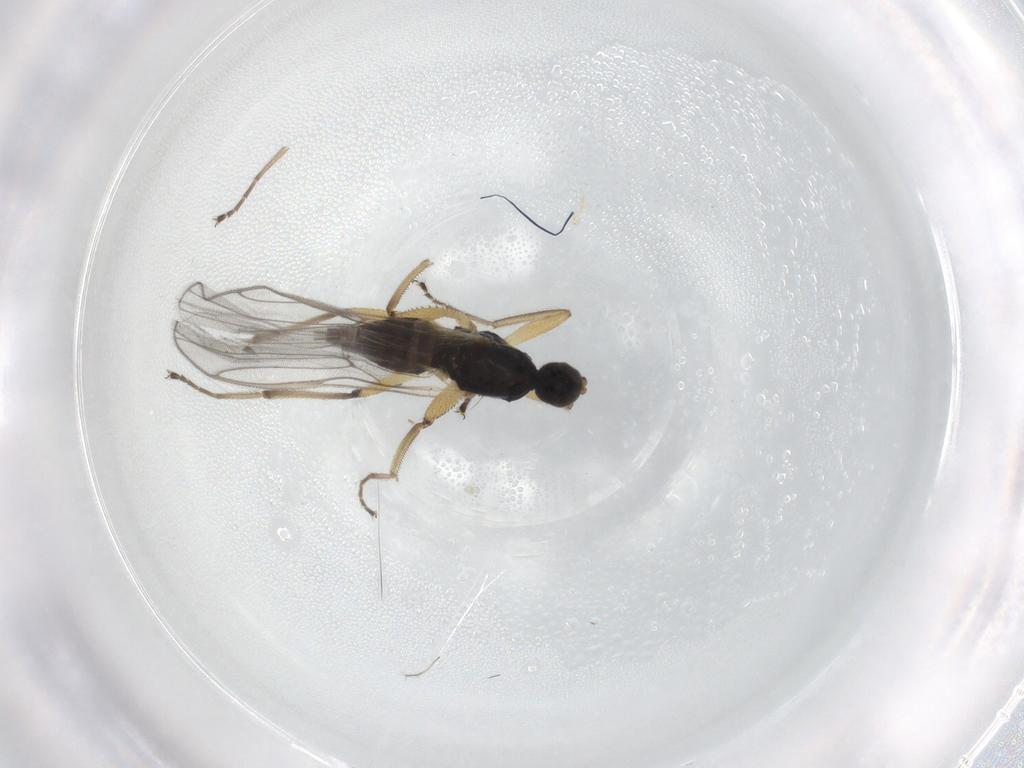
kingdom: Animalia
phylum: Arthropoda
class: Insecta
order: Diptera
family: Hybotidae
